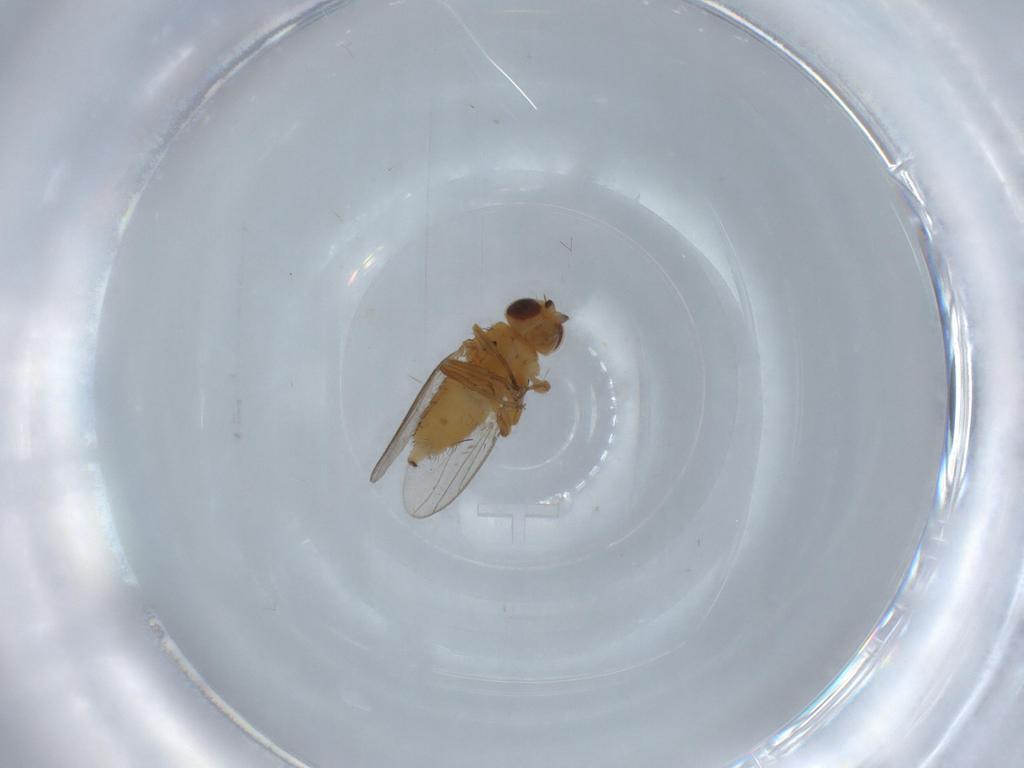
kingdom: Animalia
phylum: Arthropoda
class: Insecta
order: Diptera
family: Chloropidae
